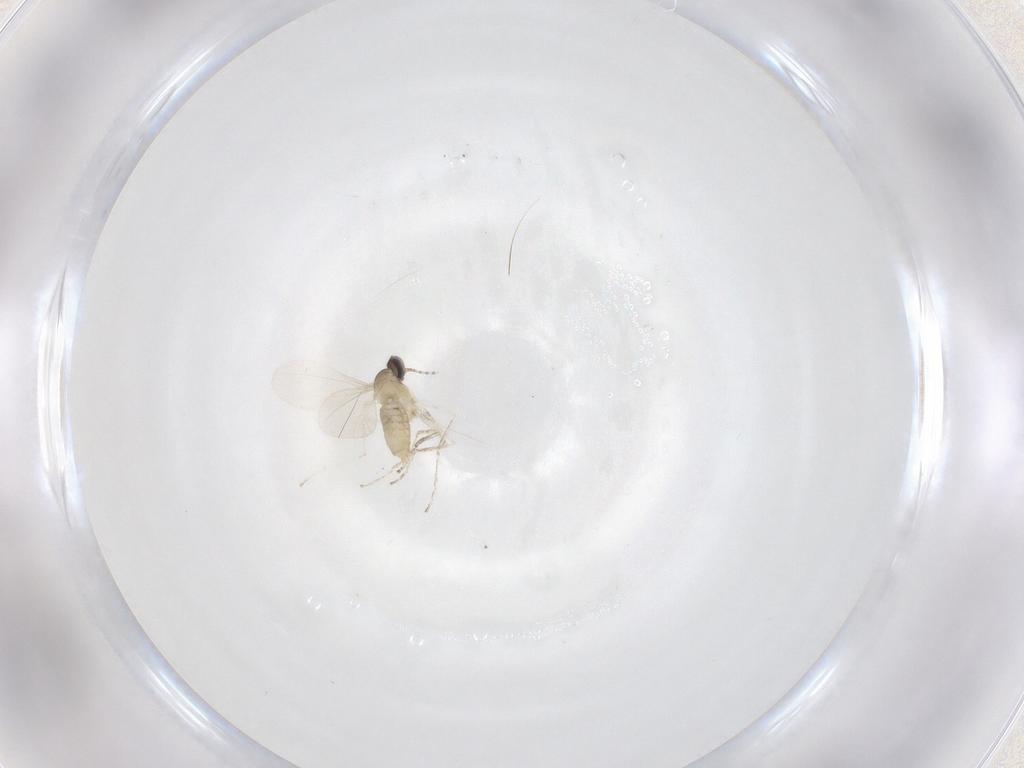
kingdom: Animalia
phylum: Arthropoda
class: Insecta
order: Diptera
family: Cecidomyiidae
